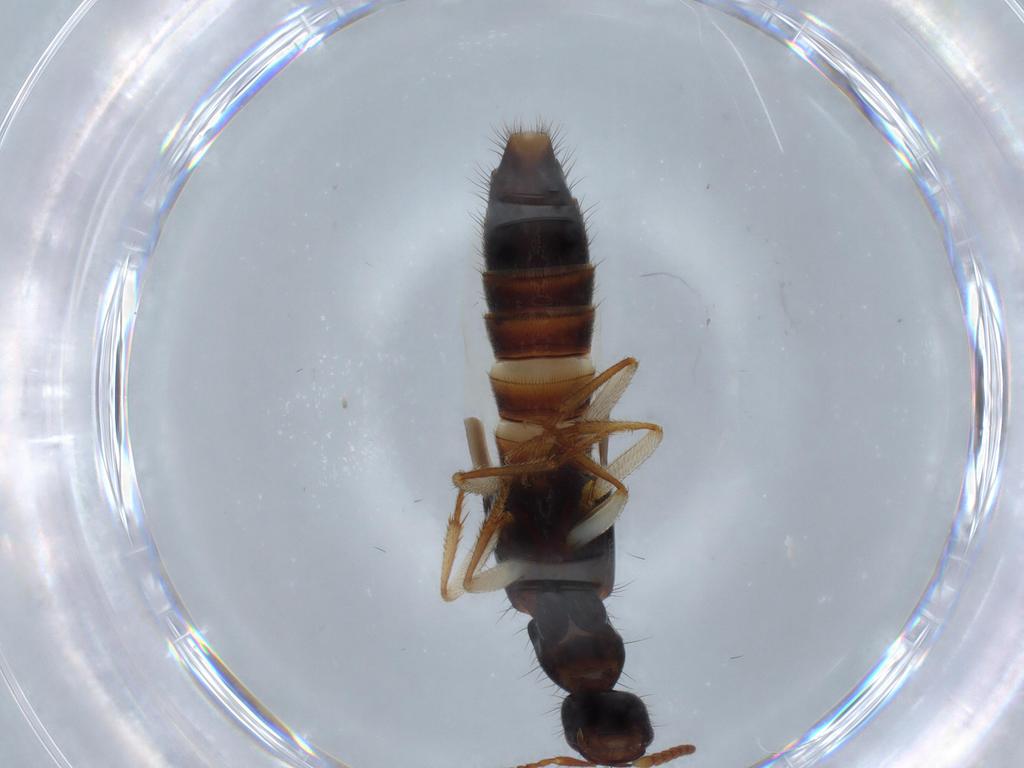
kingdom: Animalia
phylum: Arthropoda
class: Insecta
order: Coleoptera
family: Staphylinidae
